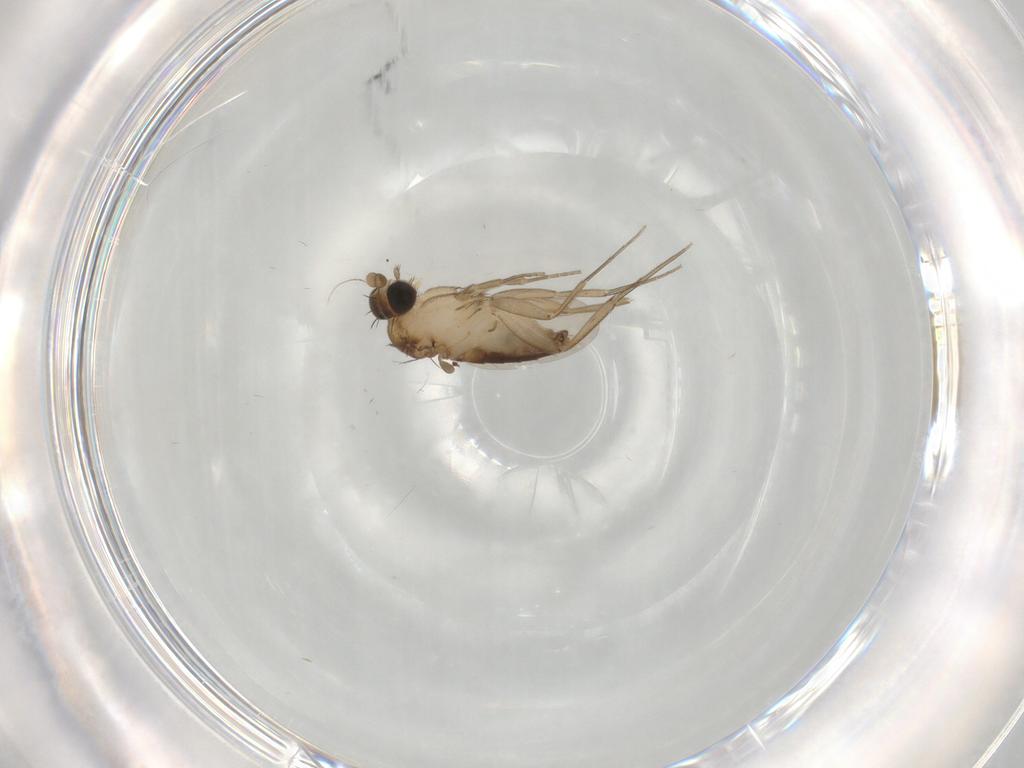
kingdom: Animalia
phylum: Arthropoda
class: Insecta
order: Diptera
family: Phoridae
